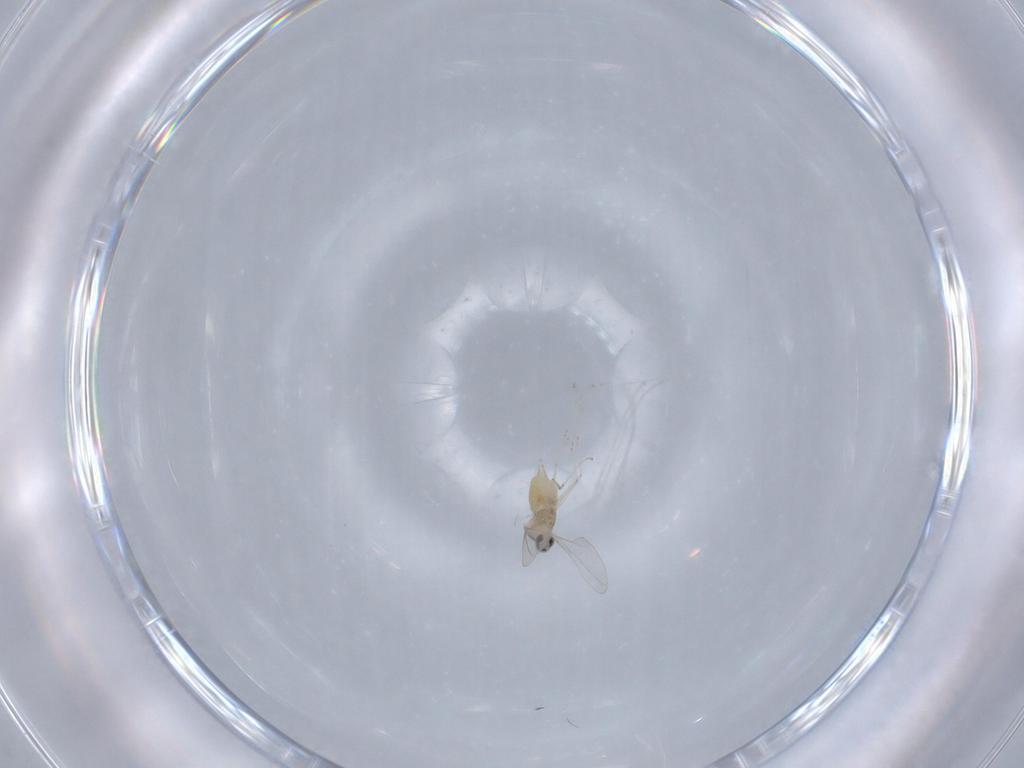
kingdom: Animalia
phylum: Arthropoda
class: Insecta
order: Diptera
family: Cecidomyiidae
